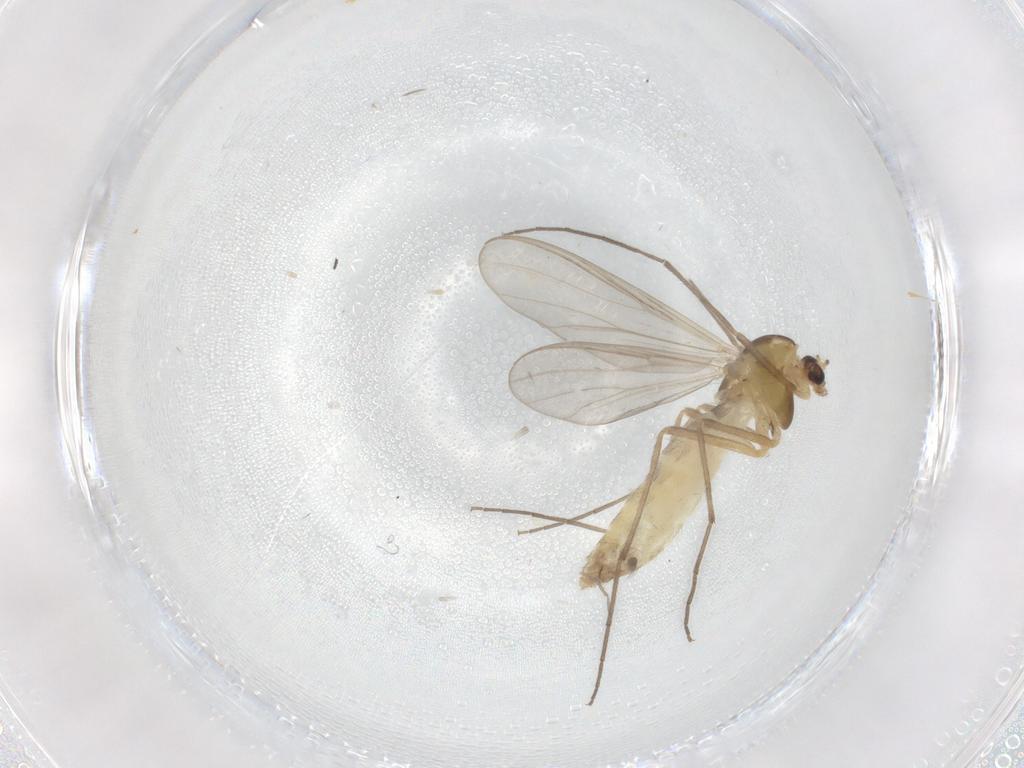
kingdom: Animalia
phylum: Arthropoda
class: Insecta
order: Diptera
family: Chironomidae
